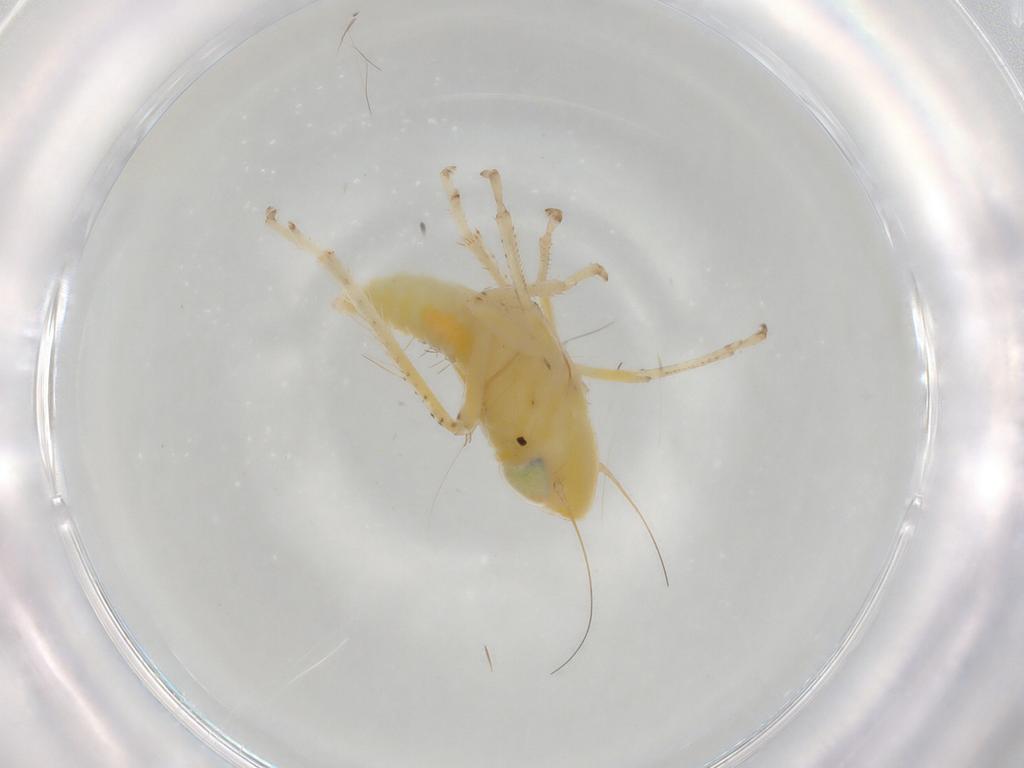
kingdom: Animalia
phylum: Arthropoda
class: Insecta
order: Hemiptera
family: Cicadellidae
